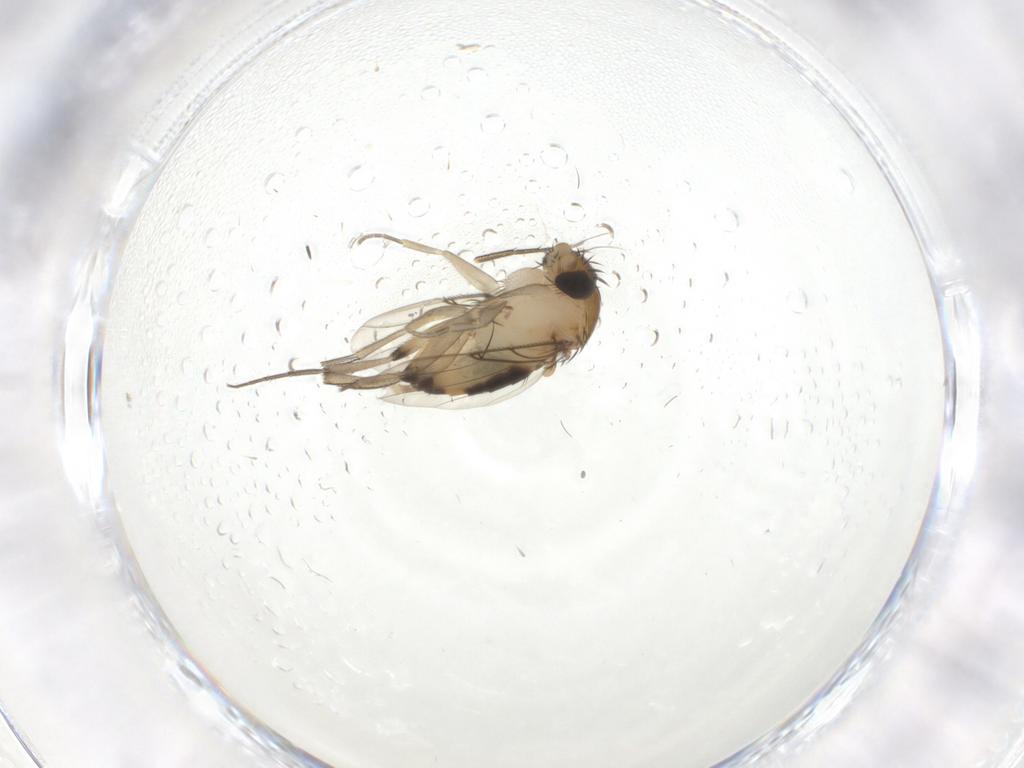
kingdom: Animalia
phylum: Arthropoda
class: Insecta
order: Diptera
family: Phoridae
